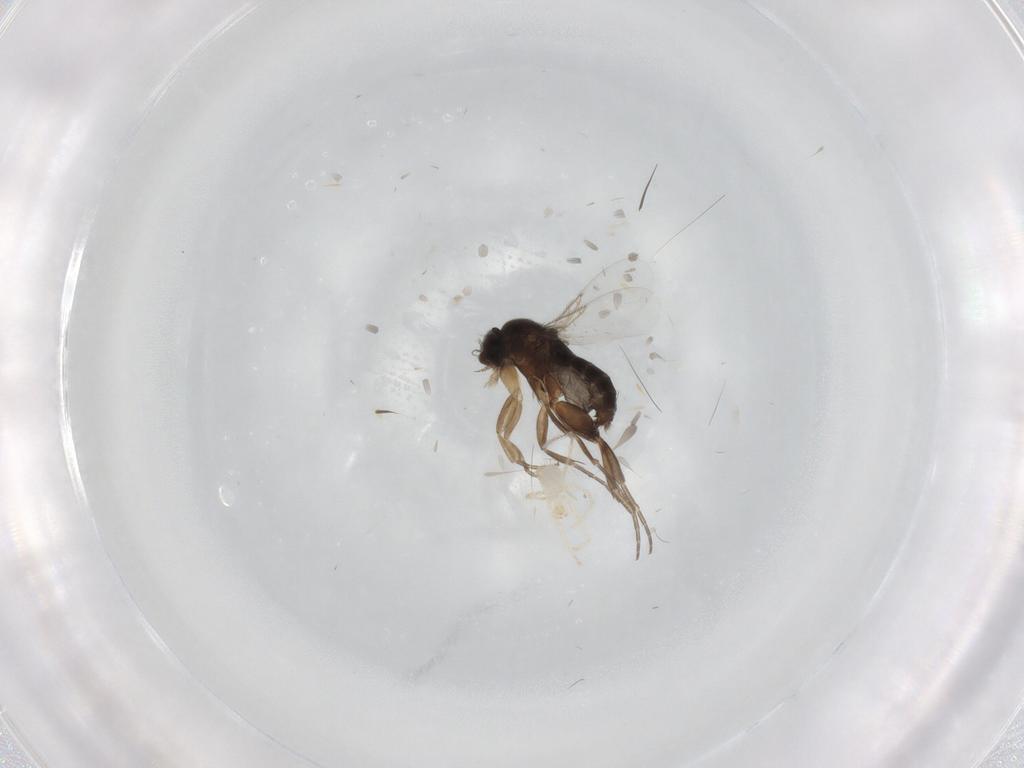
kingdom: Animalia
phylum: Arthropoda
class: Insecta
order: Diptera
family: Phoridae
